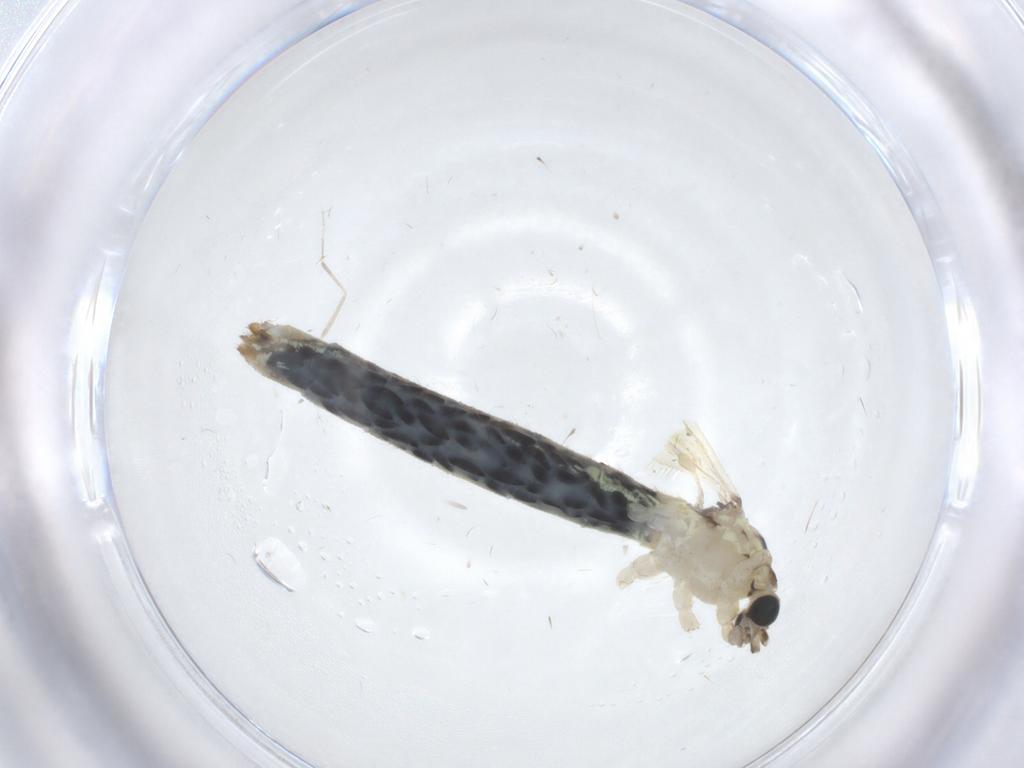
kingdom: Animalia
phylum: Arthropoda
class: Insecta
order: Diptera
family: Limoniidae
